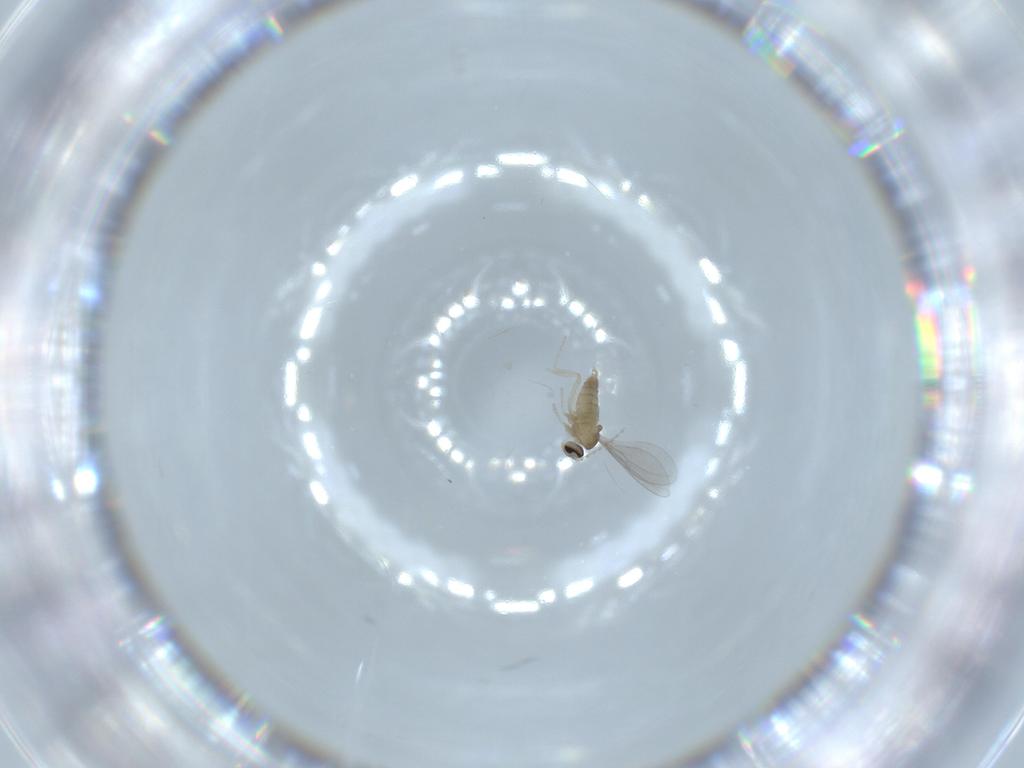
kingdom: Animalia
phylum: Arthropoda
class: Insecta
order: Diptera
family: Cecidomyiidae
